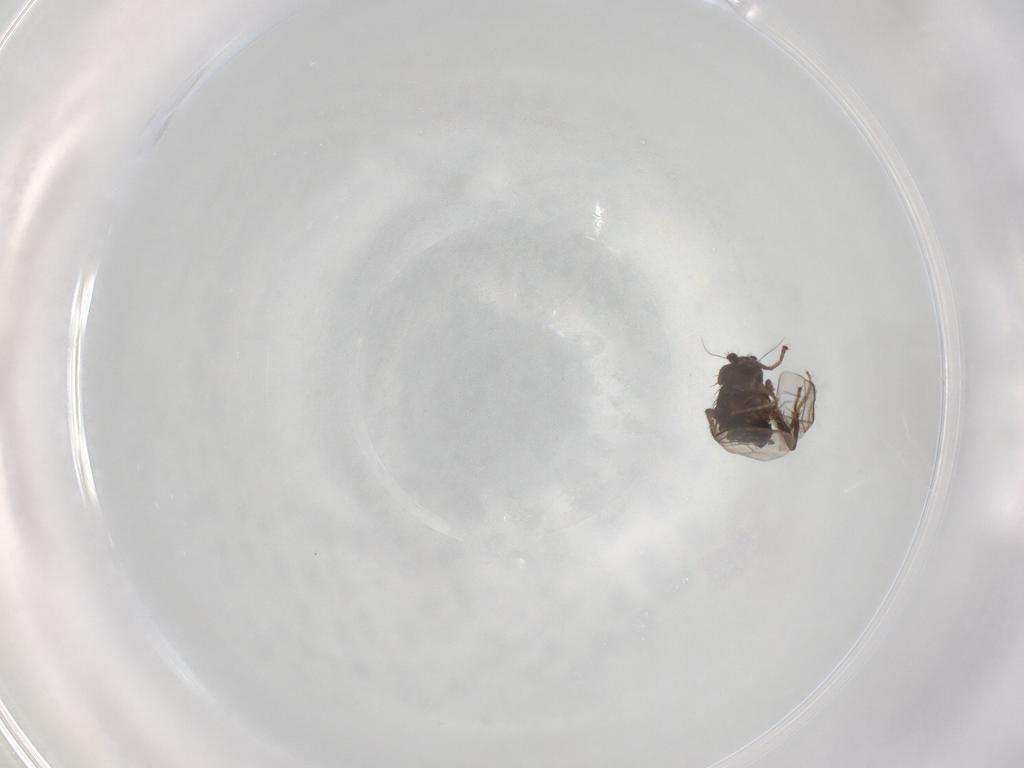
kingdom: Animalia
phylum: Arthropoda
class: Insecta
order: Diptera
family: Sphaeroceridae
